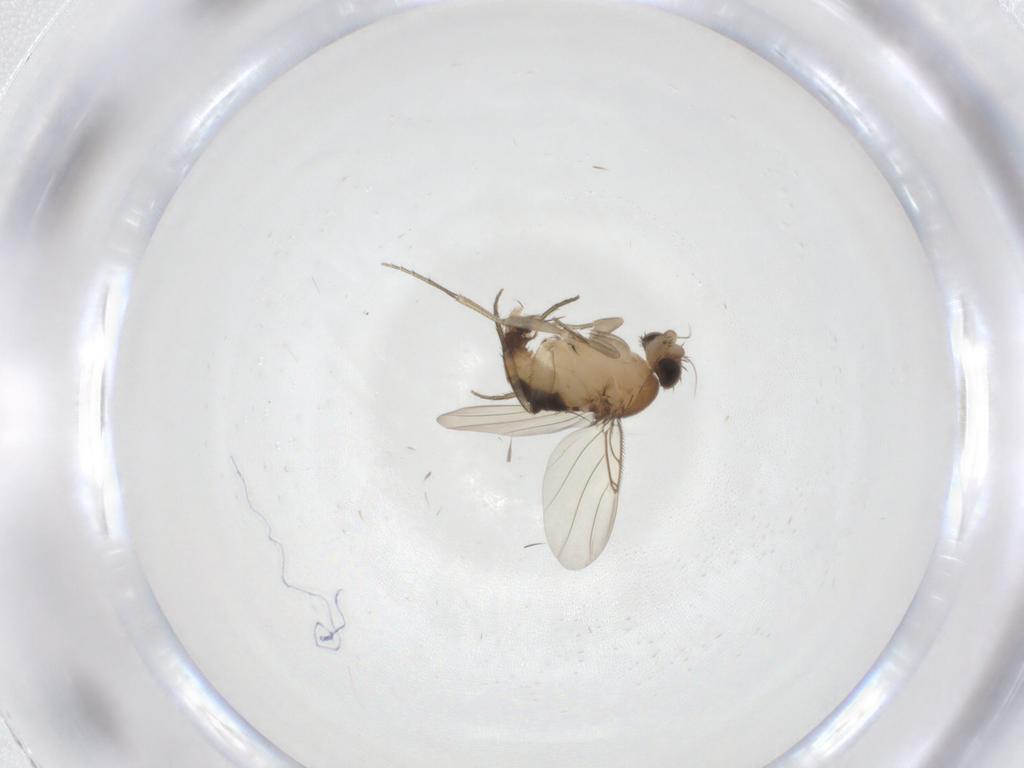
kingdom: Animalia
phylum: Arthropoda
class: Insecta
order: Diptera
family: Phoridae
